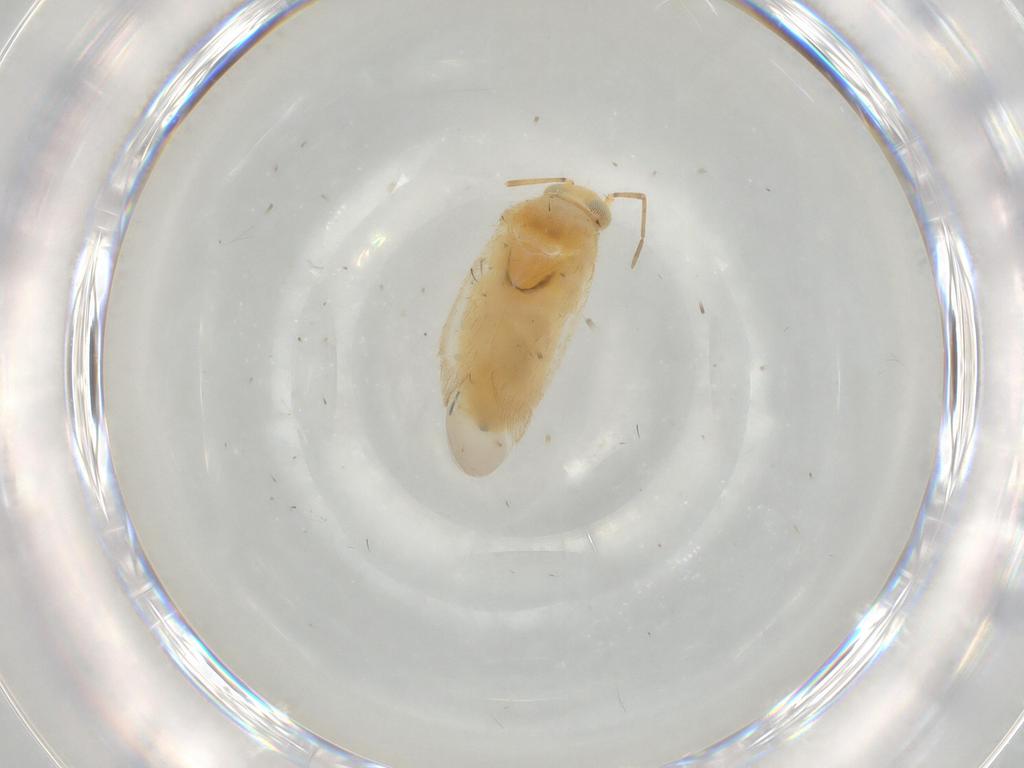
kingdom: Animalia
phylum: Arthropoda
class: Insecta
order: Hemiptera
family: Miridae
